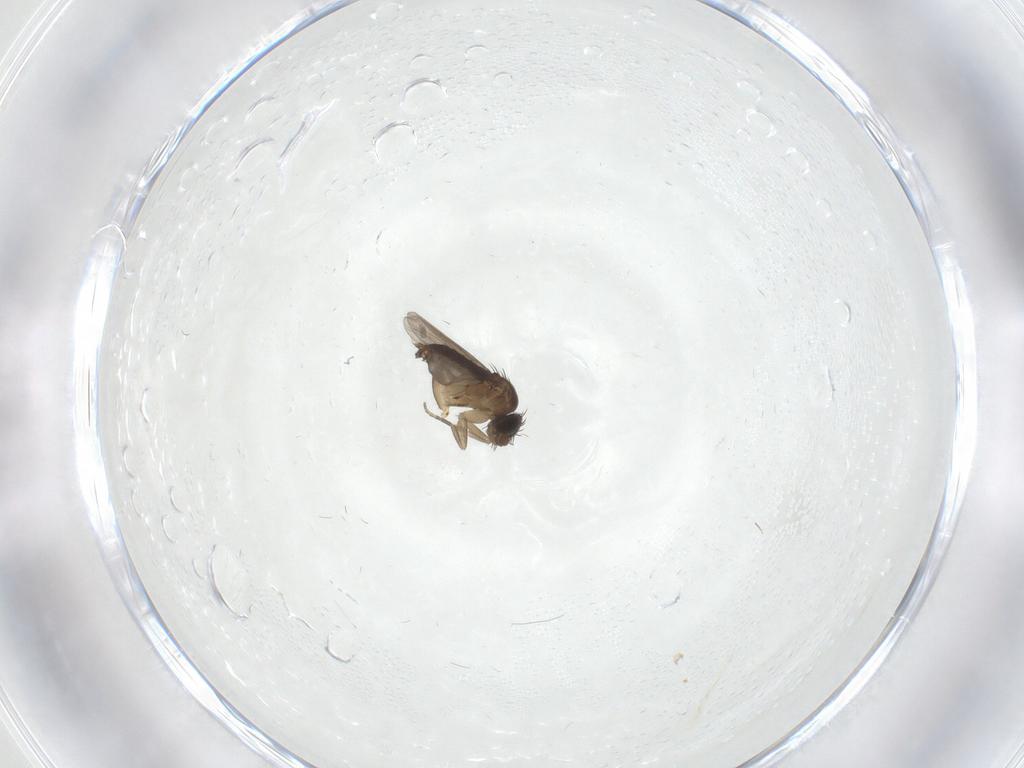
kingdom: Animalia
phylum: Arthropoda
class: Insecta
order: Diptera
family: Phoridae
